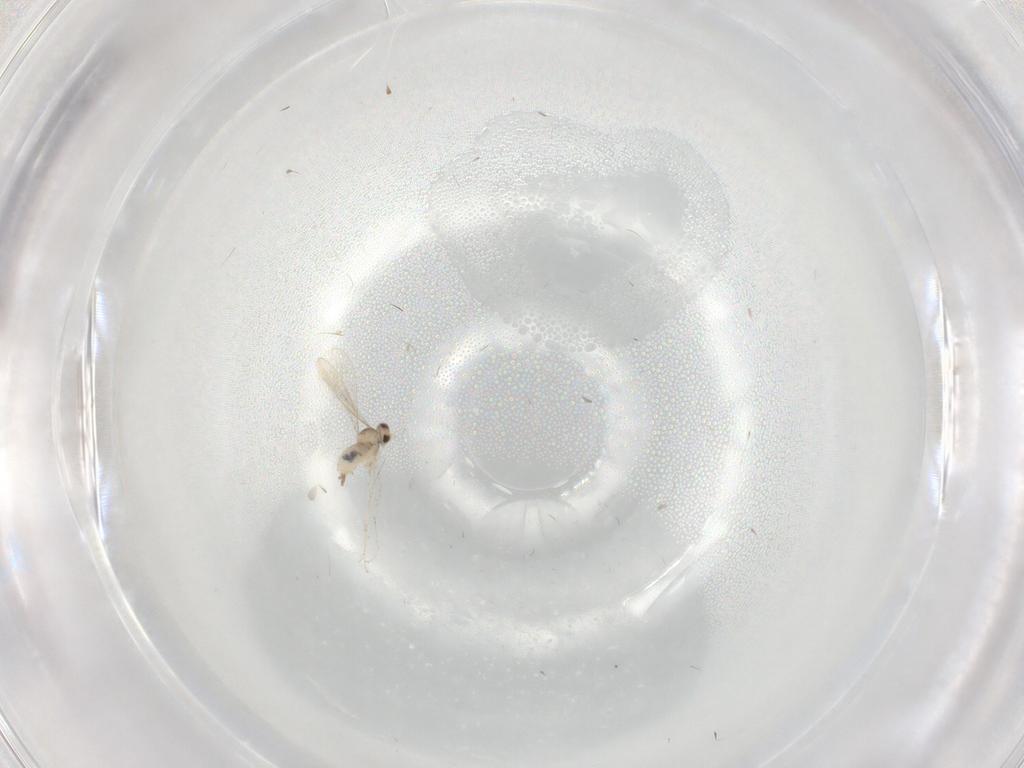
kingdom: Animalia
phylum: Arthropoda
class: Insecta
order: Diptera
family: Cecidomyiidae
